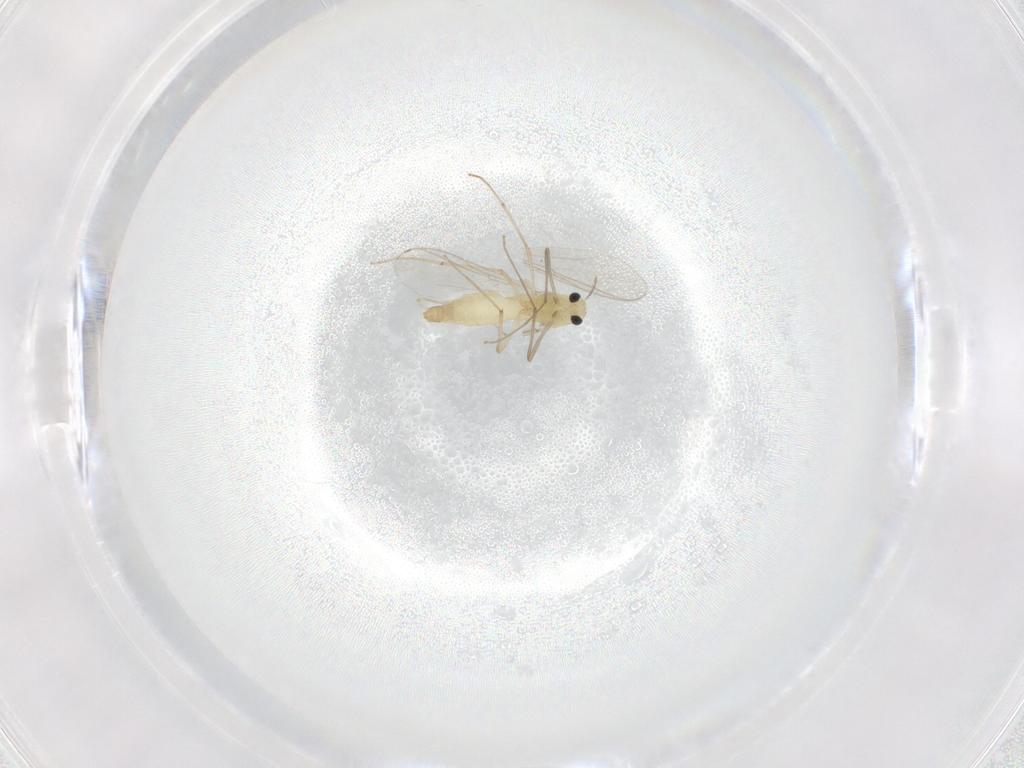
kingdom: Animalia
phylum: Arthropoda
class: Insecta
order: Diptera
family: Chironomidae
